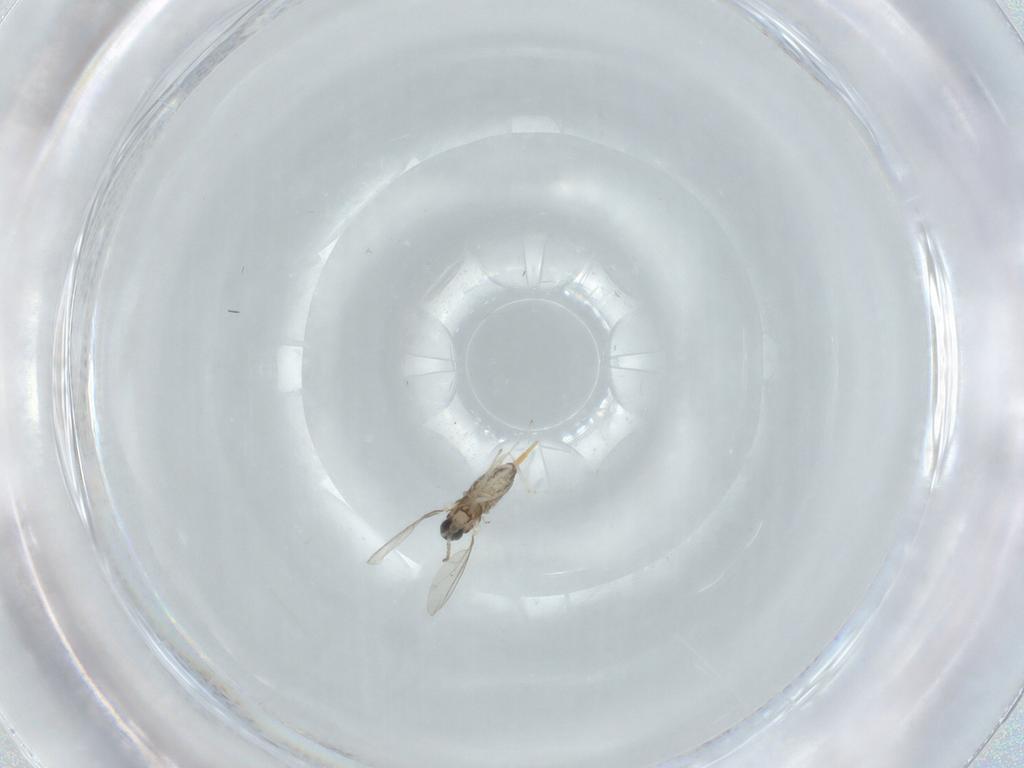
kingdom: Animalia
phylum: Arthropoda
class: Insecta
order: Diptera
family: Cecidomyiidae
